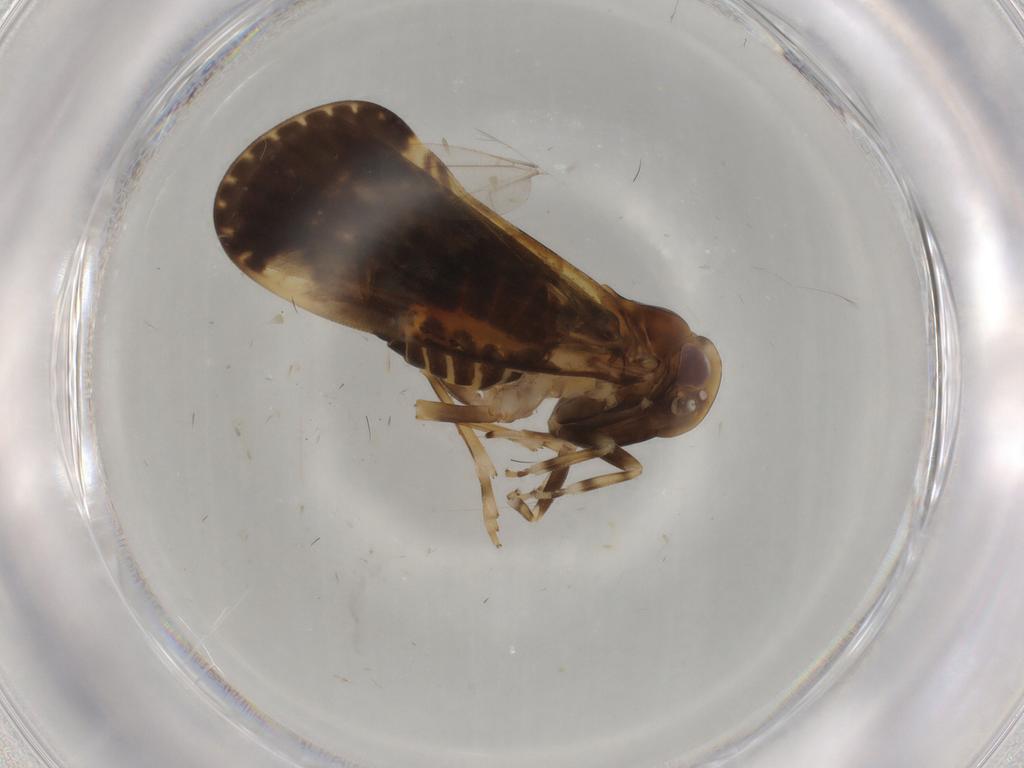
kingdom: Animalia
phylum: Arthropoda
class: Insecta
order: Hemiptera
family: Cixiidae
